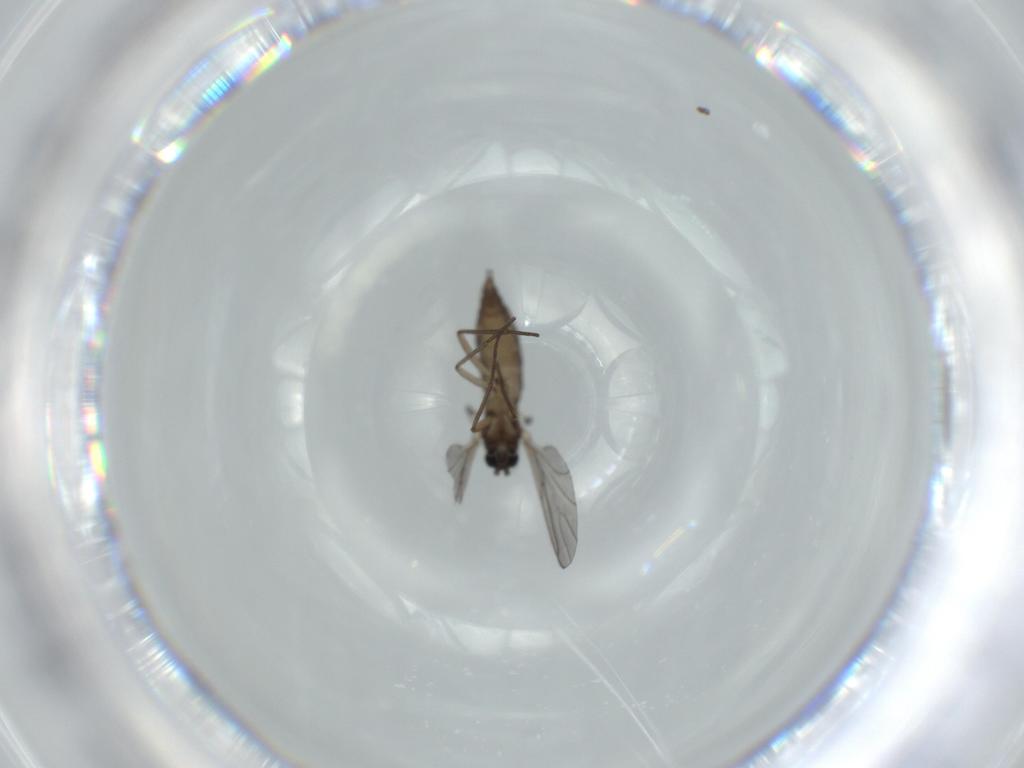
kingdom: Animalia
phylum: Arthropoda
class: Insecta
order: Diptera
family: Sciaridae
